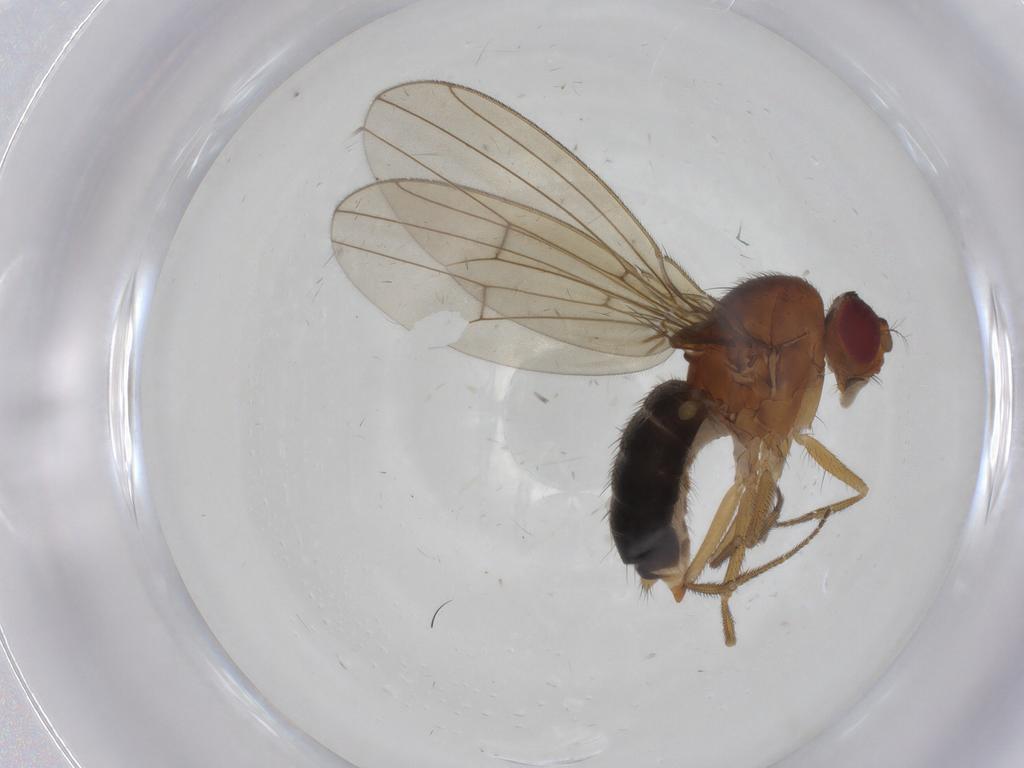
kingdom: Animalia
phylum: Arthropoda
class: Insecta
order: Diptera
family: Drosophilidae
